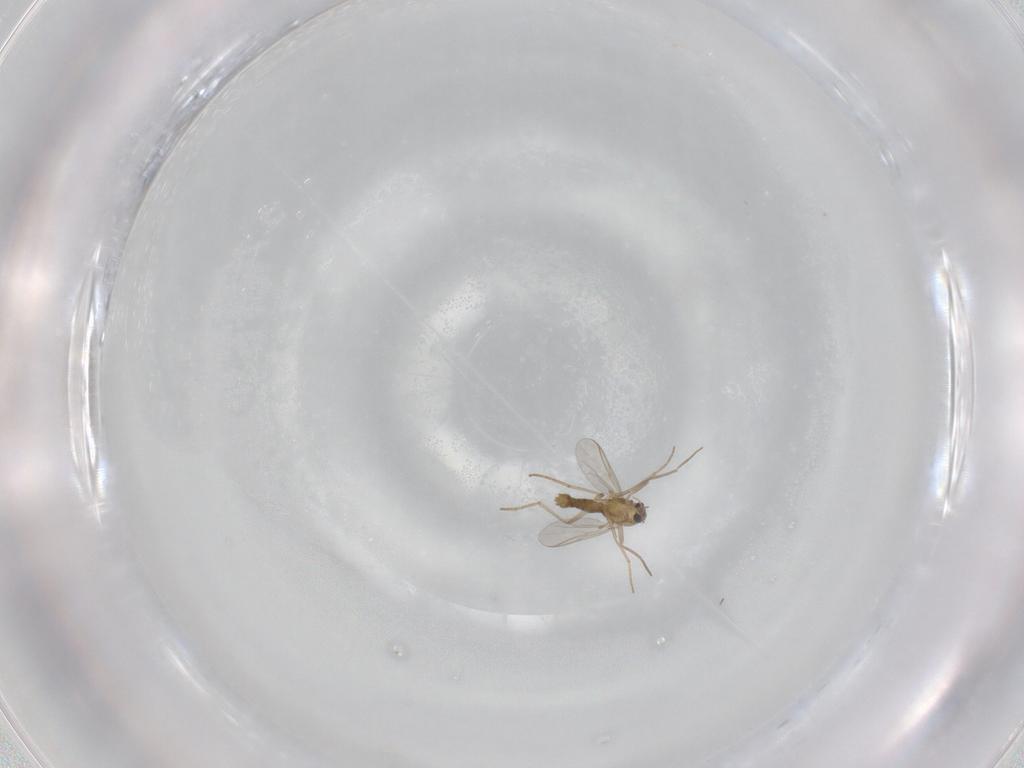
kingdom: Animalia
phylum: Arthropoda
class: Insecta
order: Diptera
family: Chironomidae
